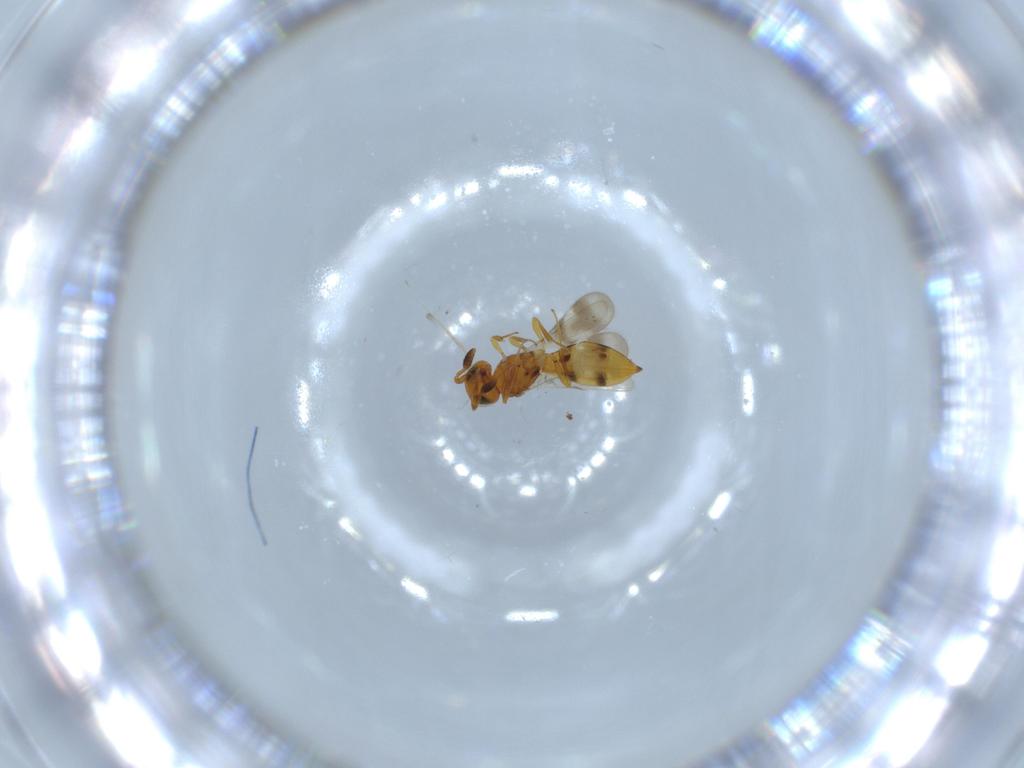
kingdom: Animalia
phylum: Arthropoda
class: Insecta
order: Hymenoptera
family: Scelionidae
